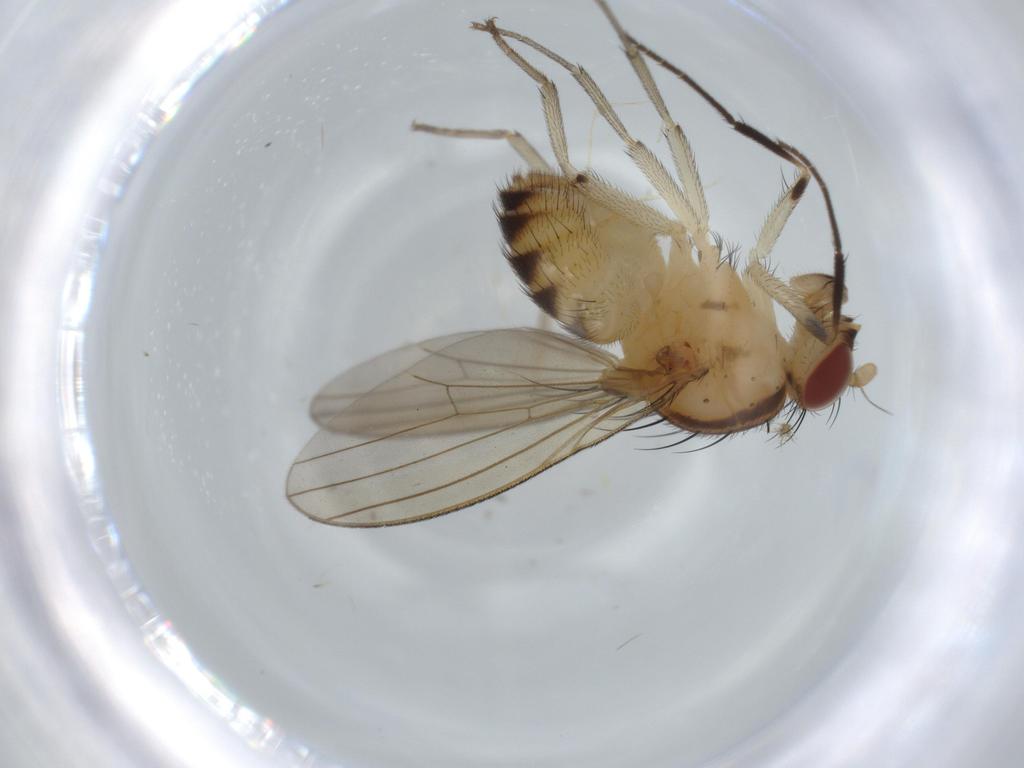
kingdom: Animalia
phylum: Arthropoda
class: Insecta
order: Diptera
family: Lauxaniidae
